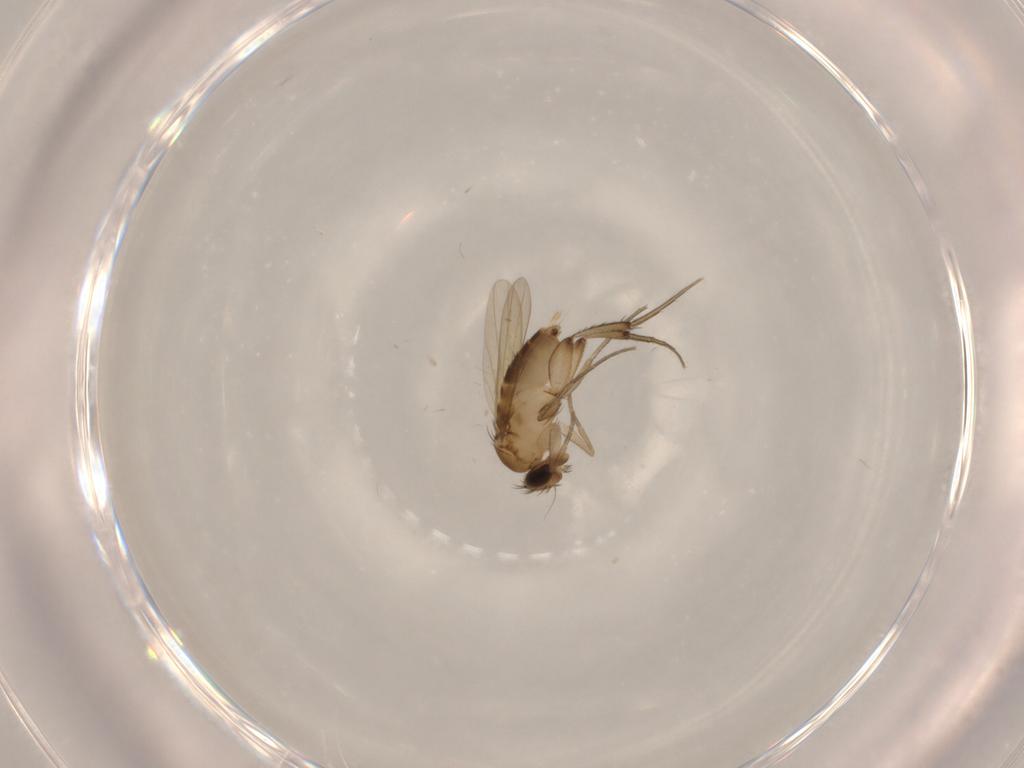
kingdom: Animalia
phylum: Arthropoda
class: Insecta
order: Diptera
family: Phoridae
